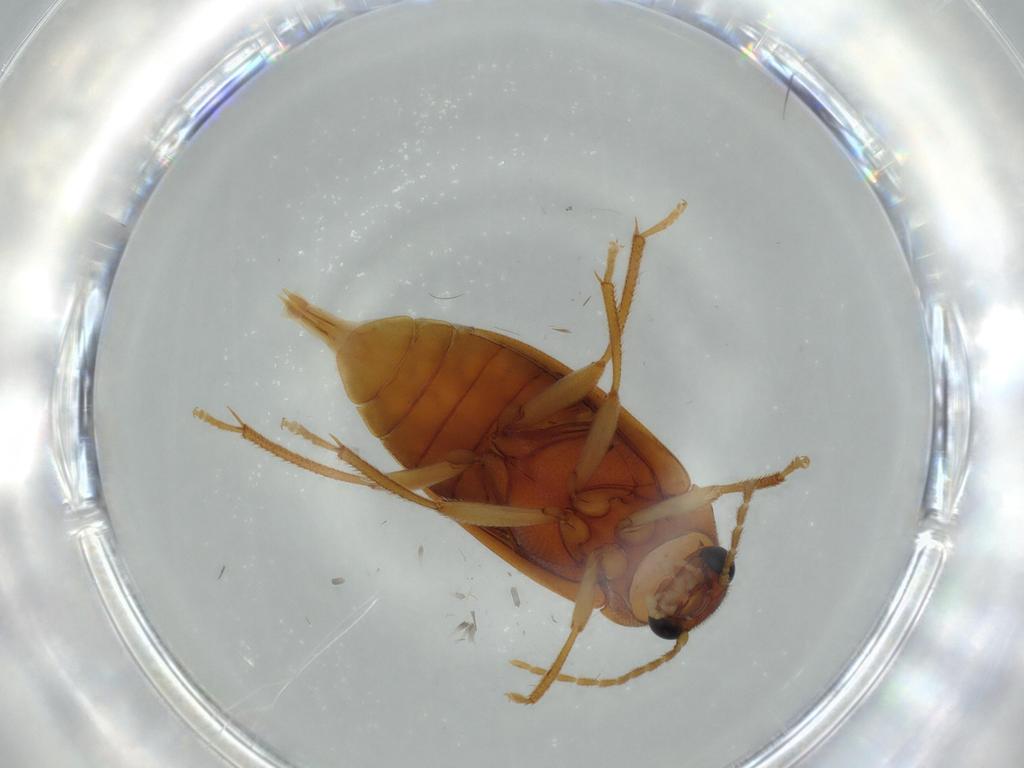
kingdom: Animalia
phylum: Arthropoda
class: Insecta
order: Coleoptera
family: Ptilodactylidae
